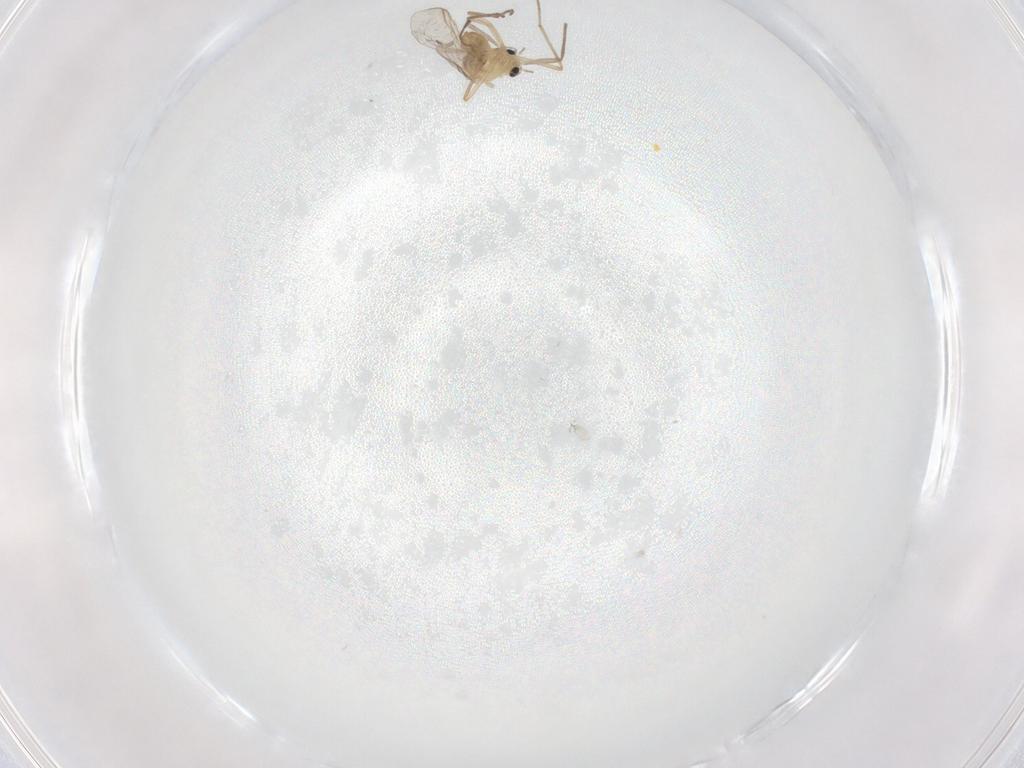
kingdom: Animalia
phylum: Arthropoda
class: Insecta
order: Diptera
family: Chironomidae
